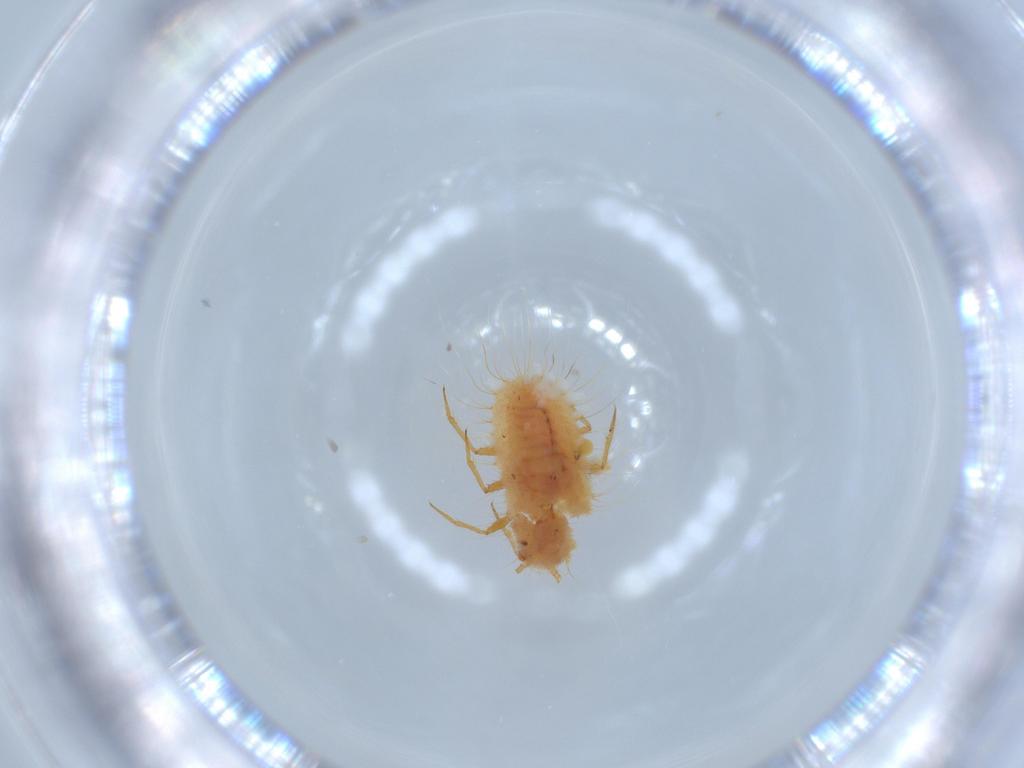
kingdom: Animalia
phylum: Arthropoda
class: Insecta
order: Hemiptera
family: Coccoidea_incertae_sedis
